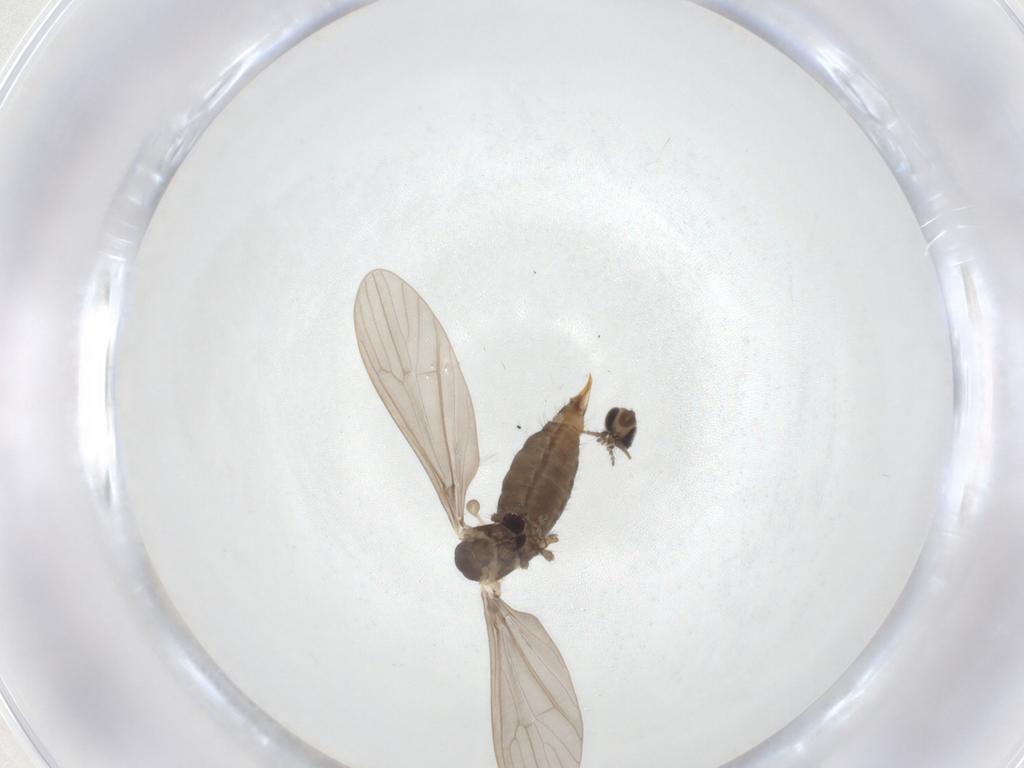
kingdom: Animalia
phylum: Arthropoda
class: Insecta
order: Diptera
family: Limoniidae
